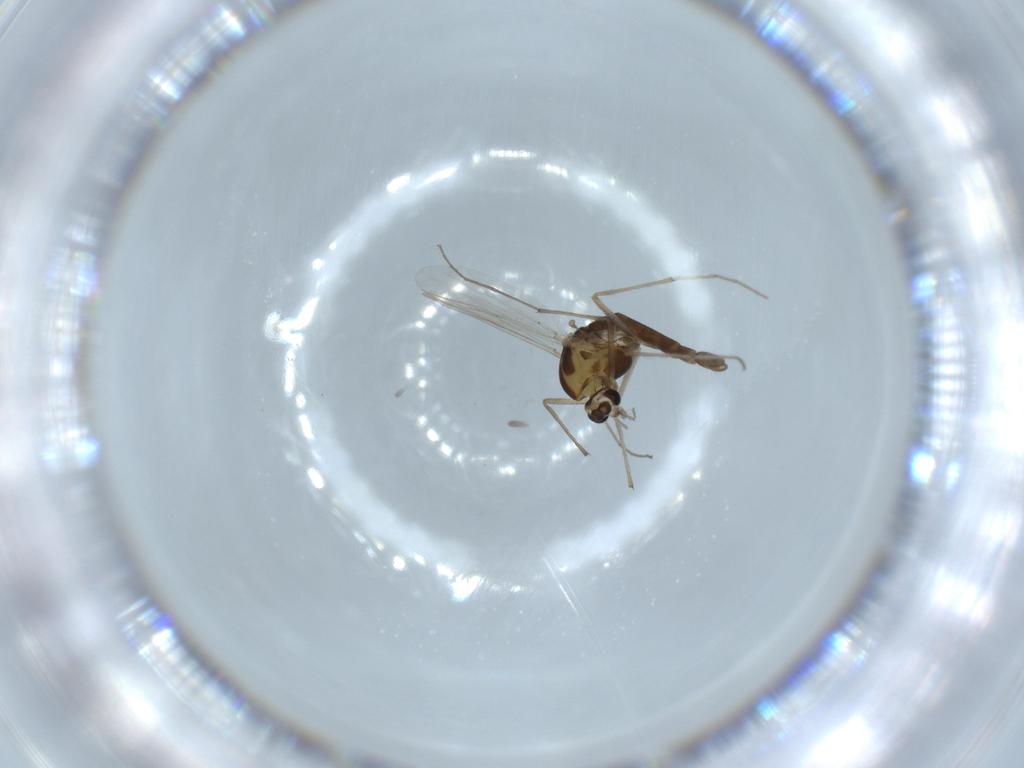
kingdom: Animalia
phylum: Arthropoda
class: Insecta
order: Diptera
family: Chironomidae
